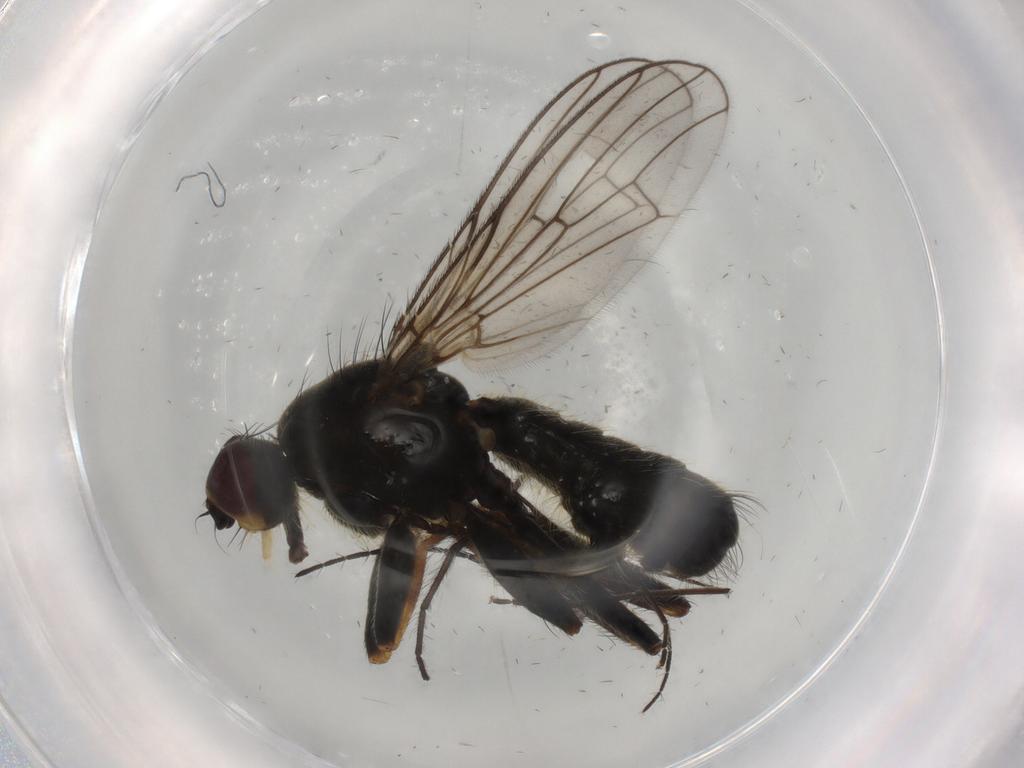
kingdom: Animalia
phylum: Arthropoda
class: Insecta
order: Diptera
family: Scathophagidae
